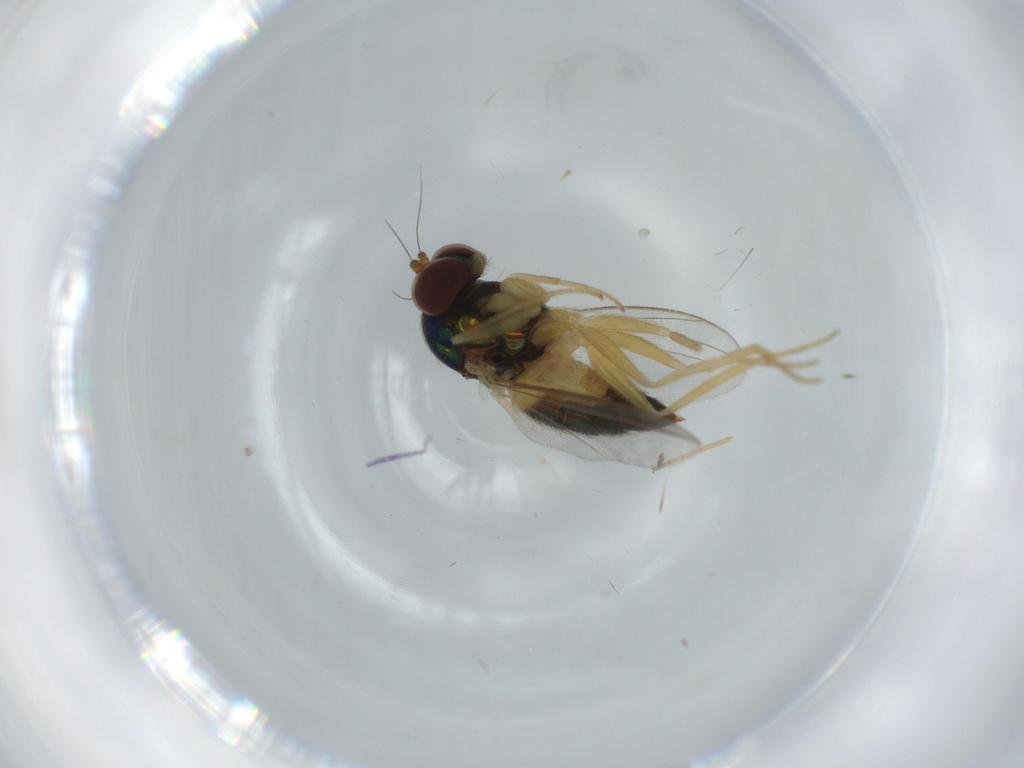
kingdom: Animalia
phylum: Arthropoda
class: Insecta
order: Diptera
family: Dolichopodidae
